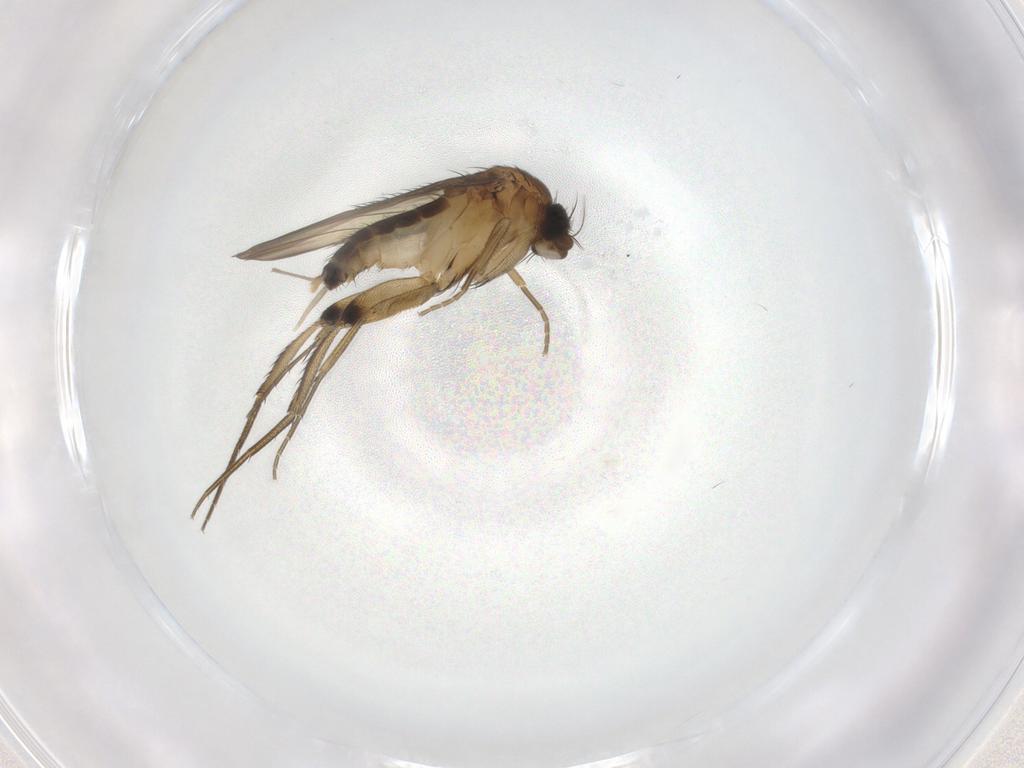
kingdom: Animalia
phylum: Arthropoda
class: Insecta
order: Diptera
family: Phoridae
